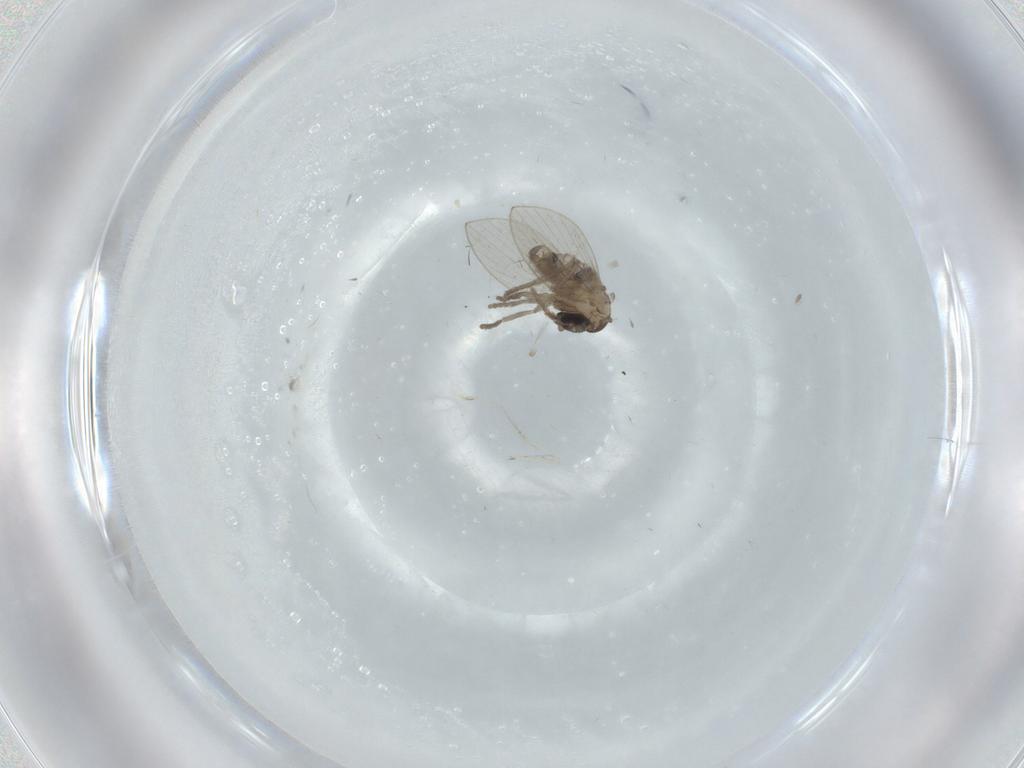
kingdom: Animalia
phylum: Arthropoda
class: Insecta
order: Diptera
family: Psychodidae
